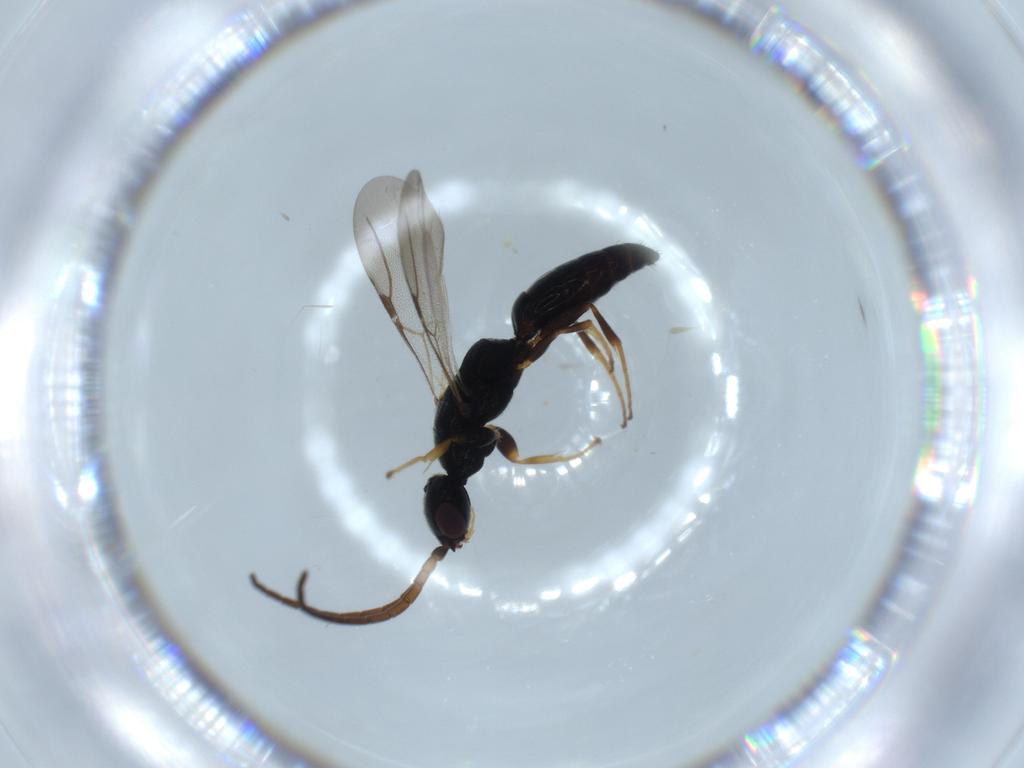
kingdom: Animalia
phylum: Arthropoda
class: Insecta
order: Hymenoptera
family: Bethylidae
